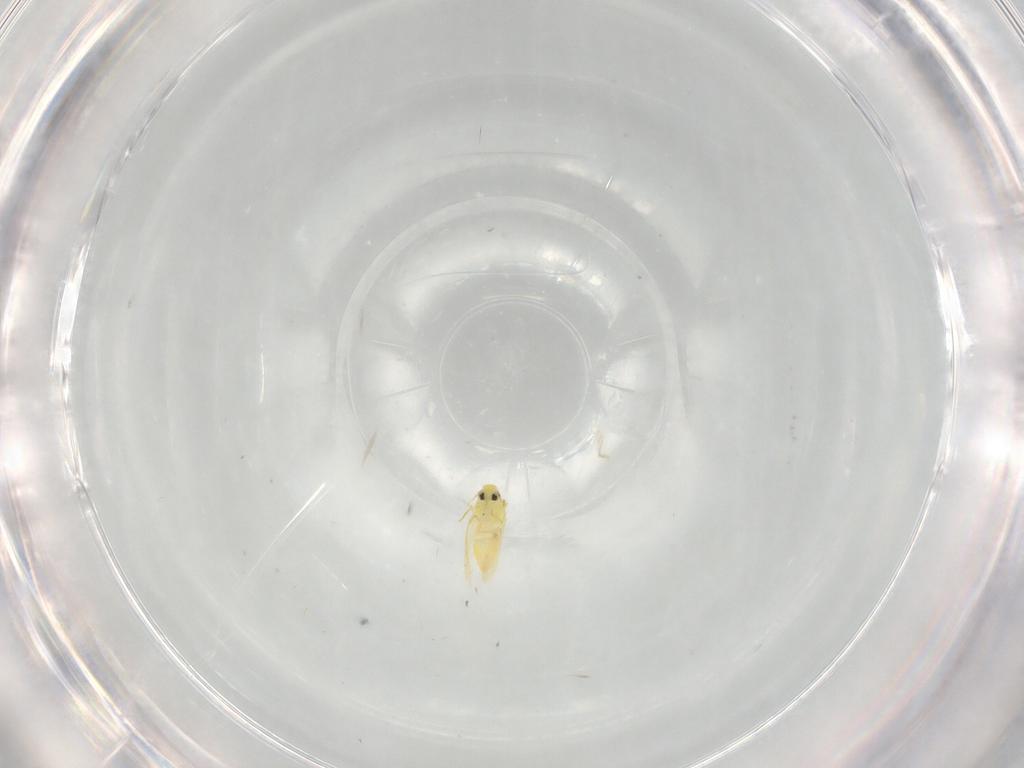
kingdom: Animalia
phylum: Arthropoda
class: Insecta
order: Hemiptera
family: Aleyrodidae
